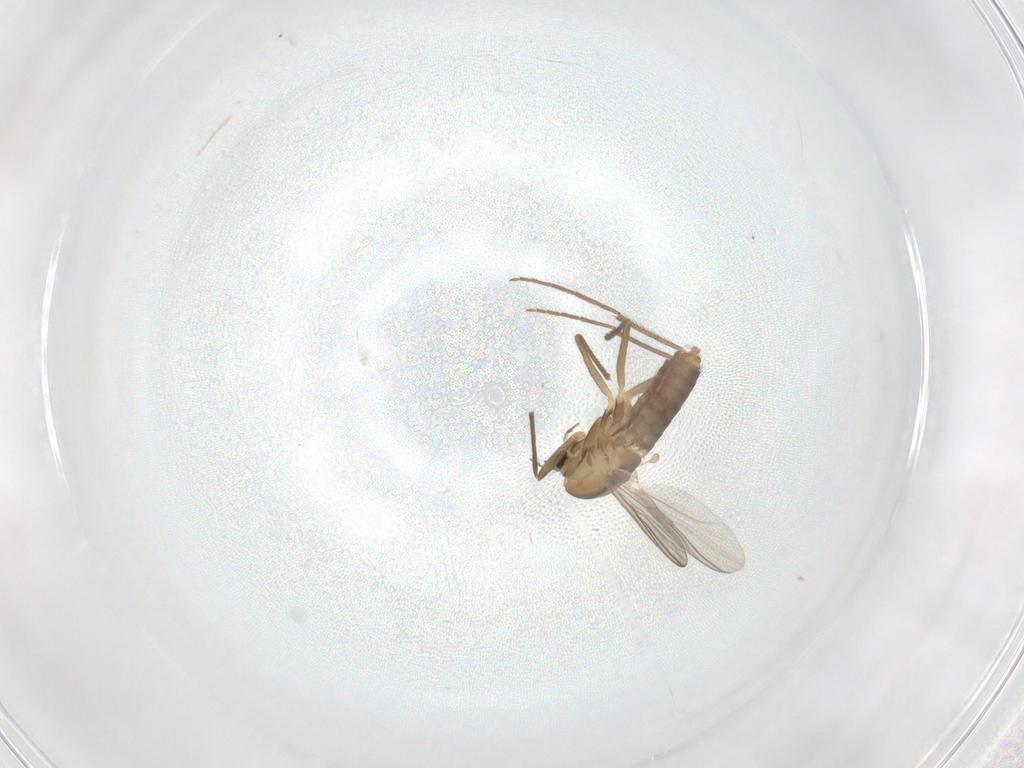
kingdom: Animalia
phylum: Arthropoda
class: Insecta
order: Diptera
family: Chironomidae
